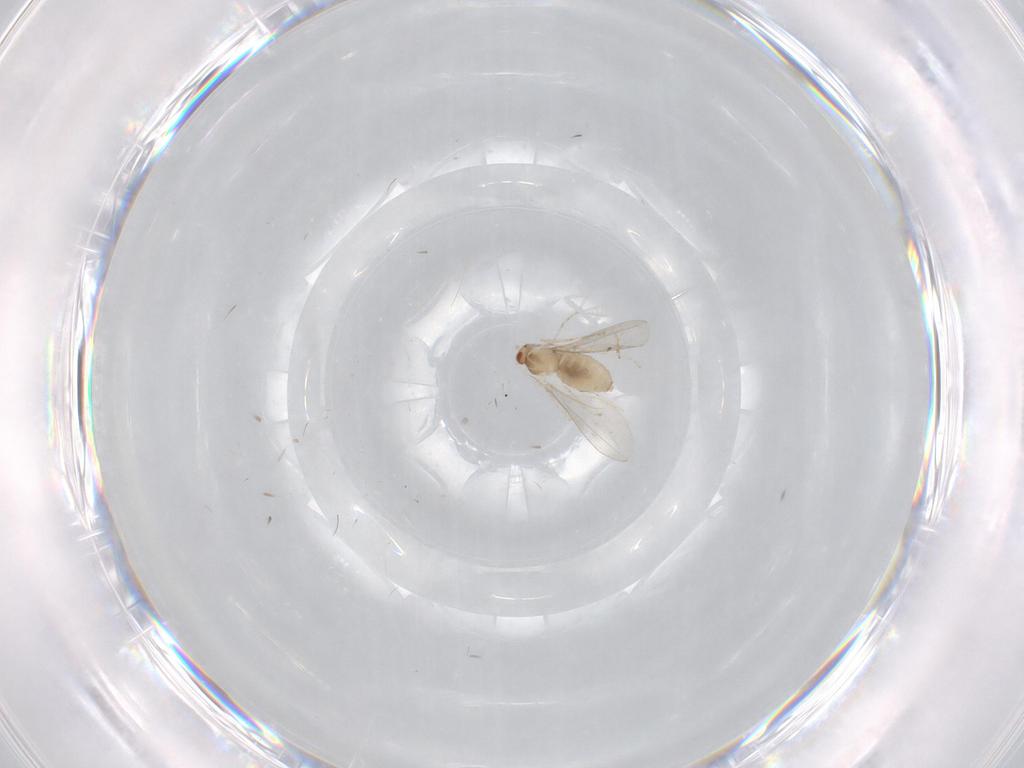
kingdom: Animalia
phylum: Arthropoda
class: Insecta
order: Diptera
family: Cecidomyiidae
